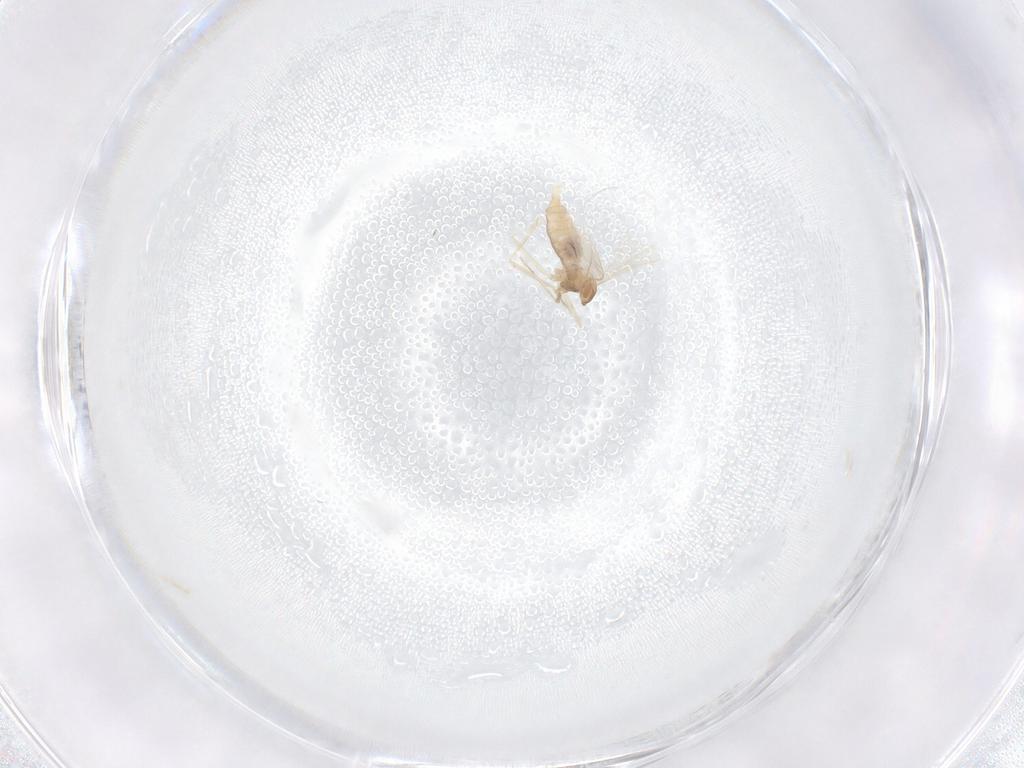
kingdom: Animalia
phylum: Arthropoda
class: Insecta
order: Diptera
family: Cecidomyiidae
